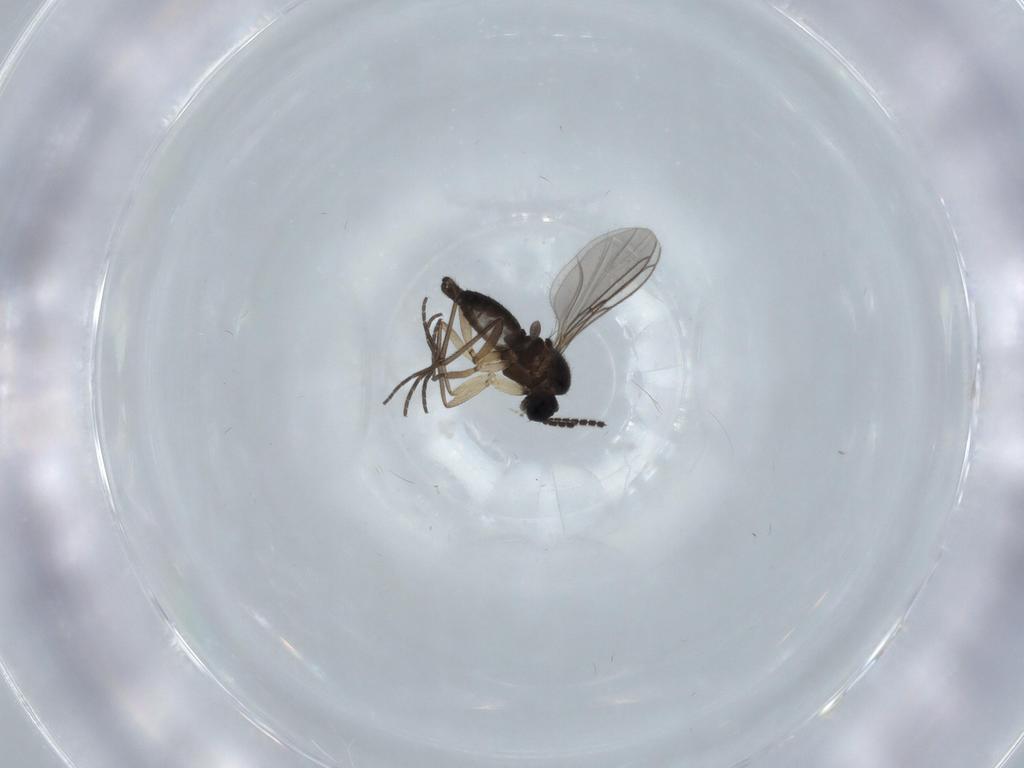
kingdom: Animalia
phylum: Arthropoda
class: Insecta
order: Diptera
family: Sciaridae
